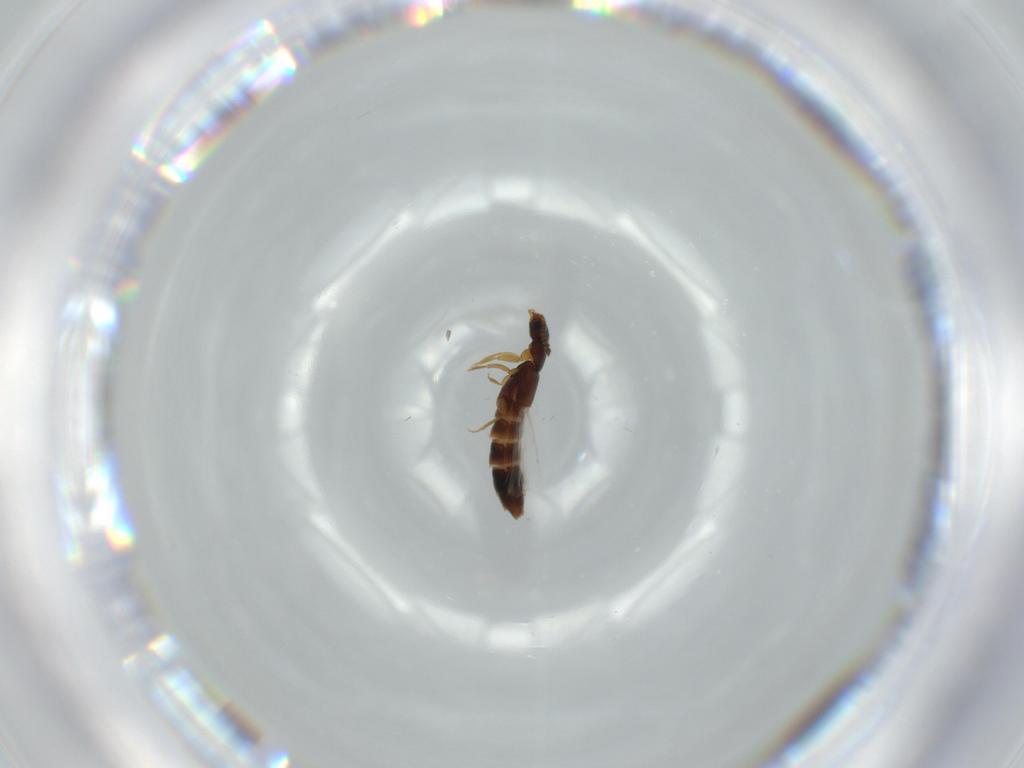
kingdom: Animalia
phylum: Arthropoda
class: Insecta
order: Coleoptera
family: Staphylinidae
